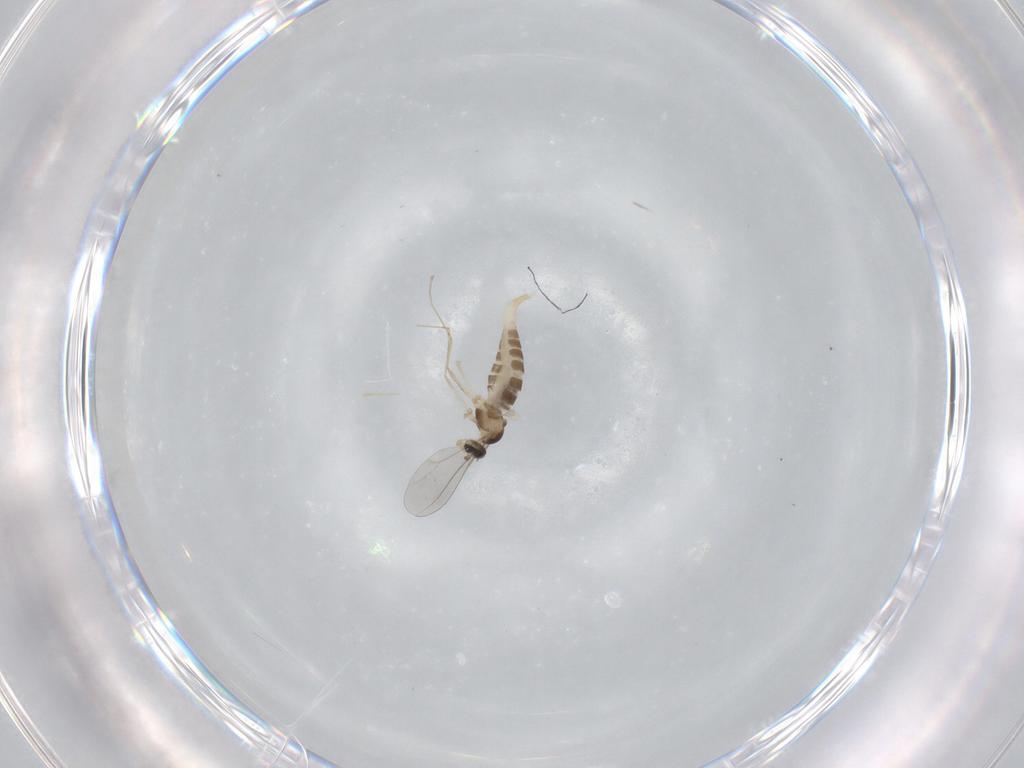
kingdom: Animalia
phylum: Arthropoda
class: Insecta
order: Diptera
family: Cecidomyiidae
